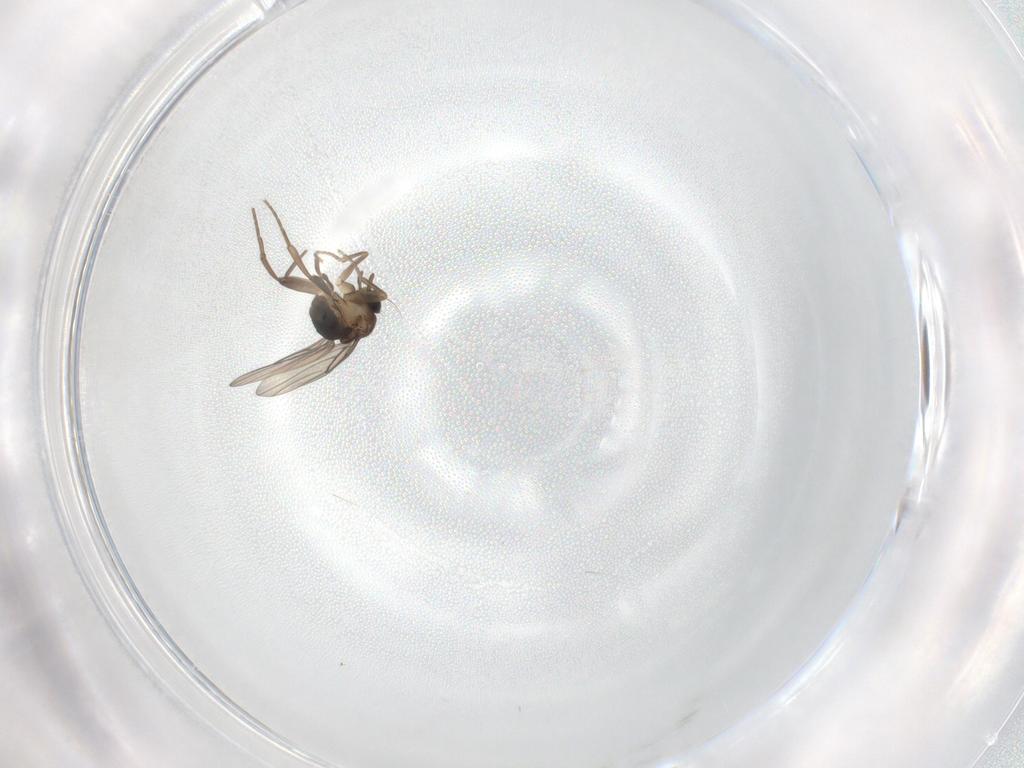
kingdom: Animalia
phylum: Arthropoda
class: Insecta
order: Diptera
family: Dolichopodidae
